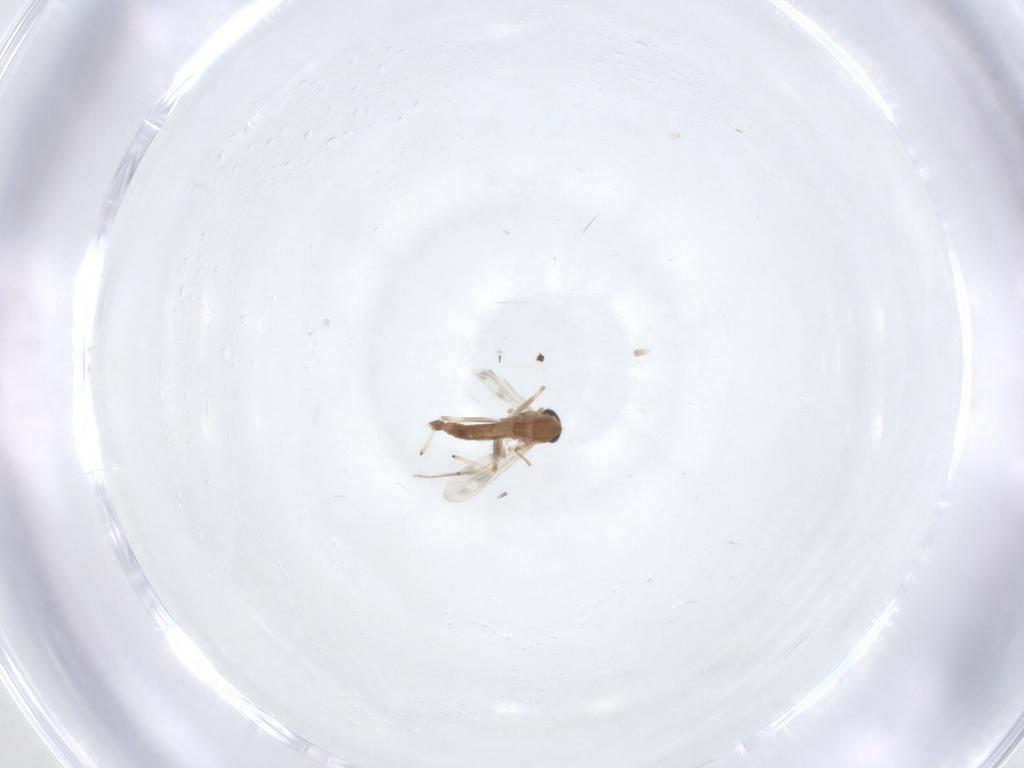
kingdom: Animalia
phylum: Arthropoda
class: Insecta
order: Diptera
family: Chironomidae
